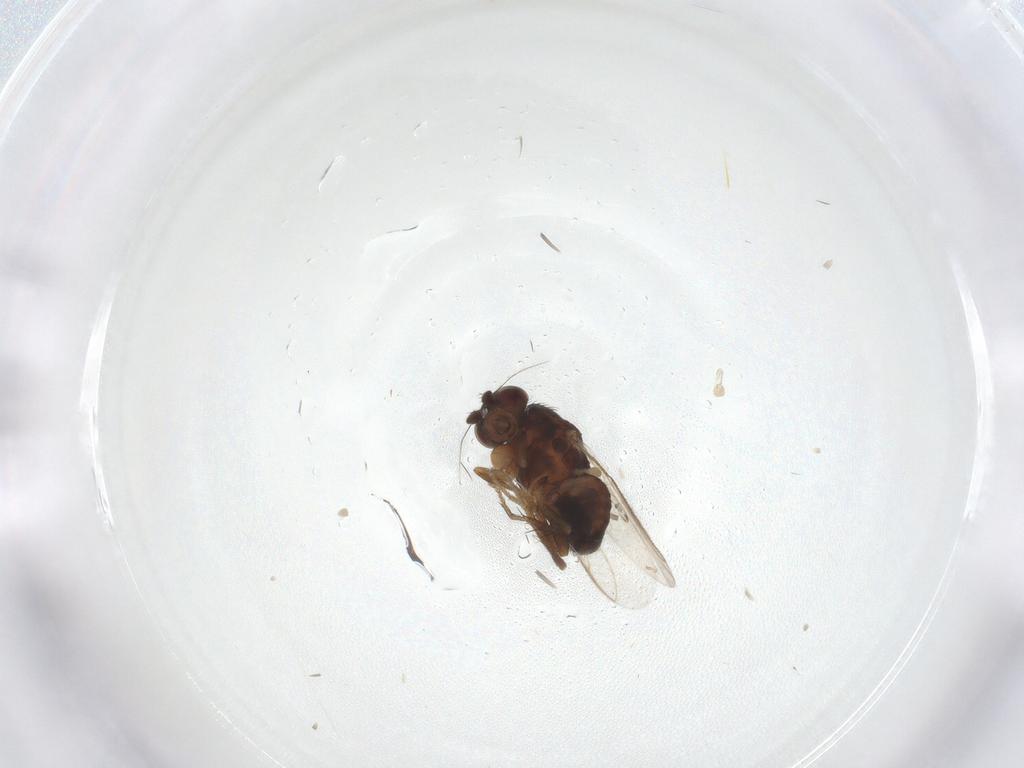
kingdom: Animalia
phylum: Arthropoda
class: Insecta
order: Diptera
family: Sphaeroceridae
